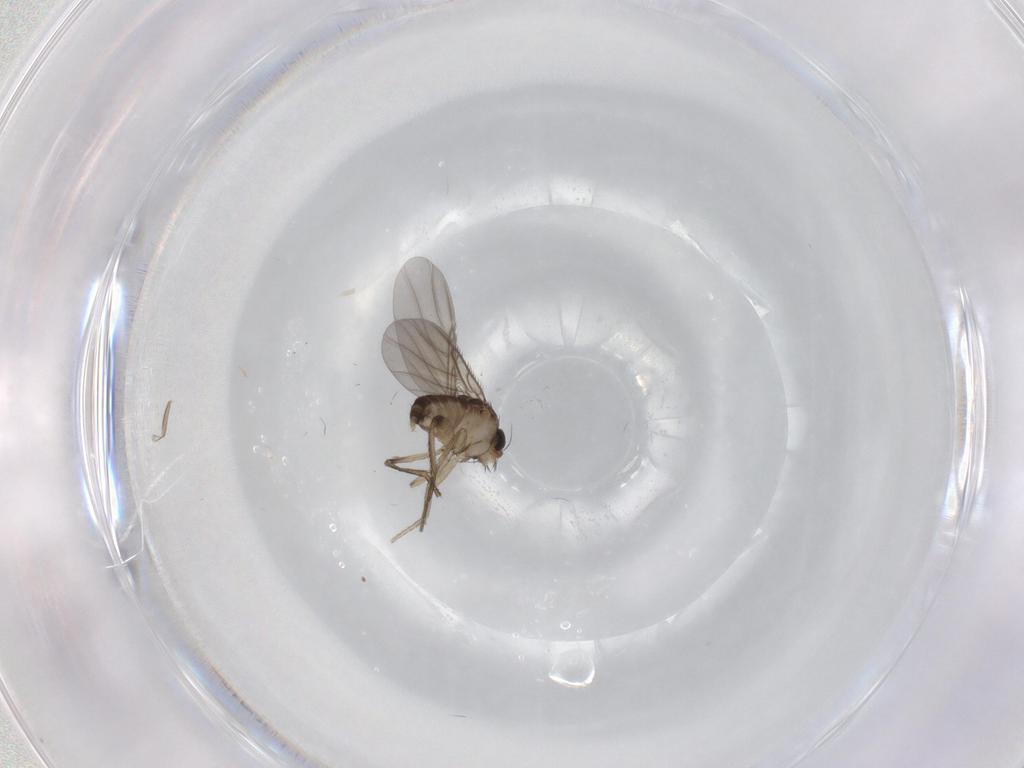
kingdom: Animalia
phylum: Arthropoda
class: Insecta
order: Diptera
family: Phoridae
